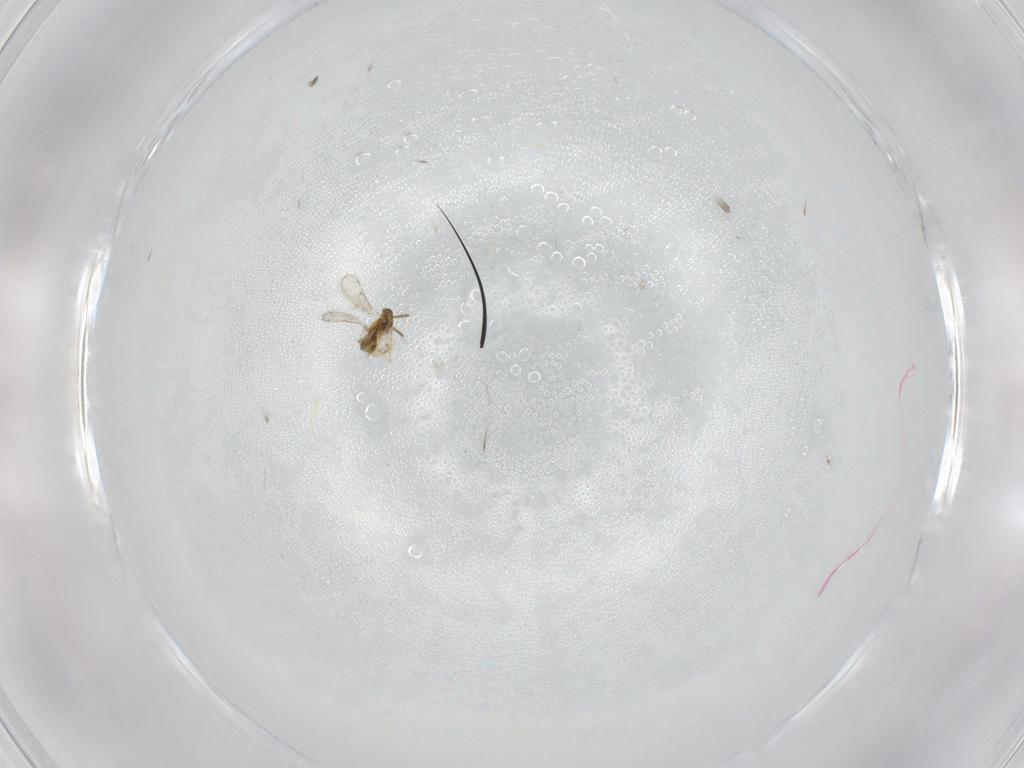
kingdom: Animalia
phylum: Arthropoda
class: Insecta
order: Hymenoptera
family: Aphelinidae
